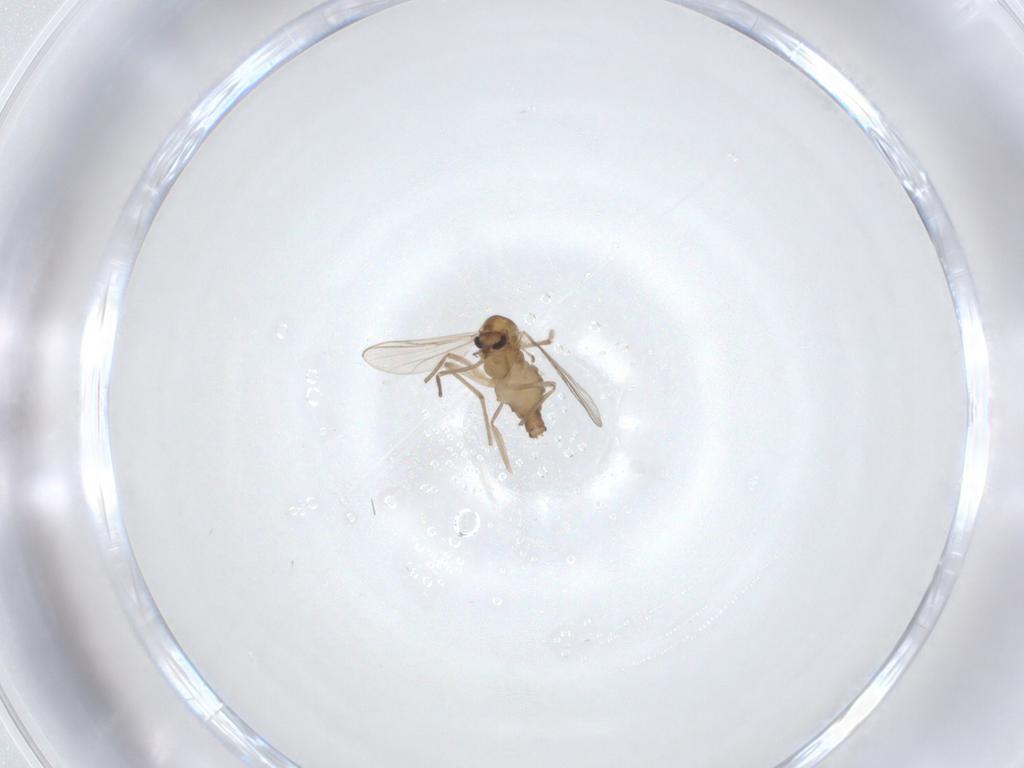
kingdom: Animalia
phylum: Arthropoda
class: Insecta
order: Diptera
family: Chironomidae
